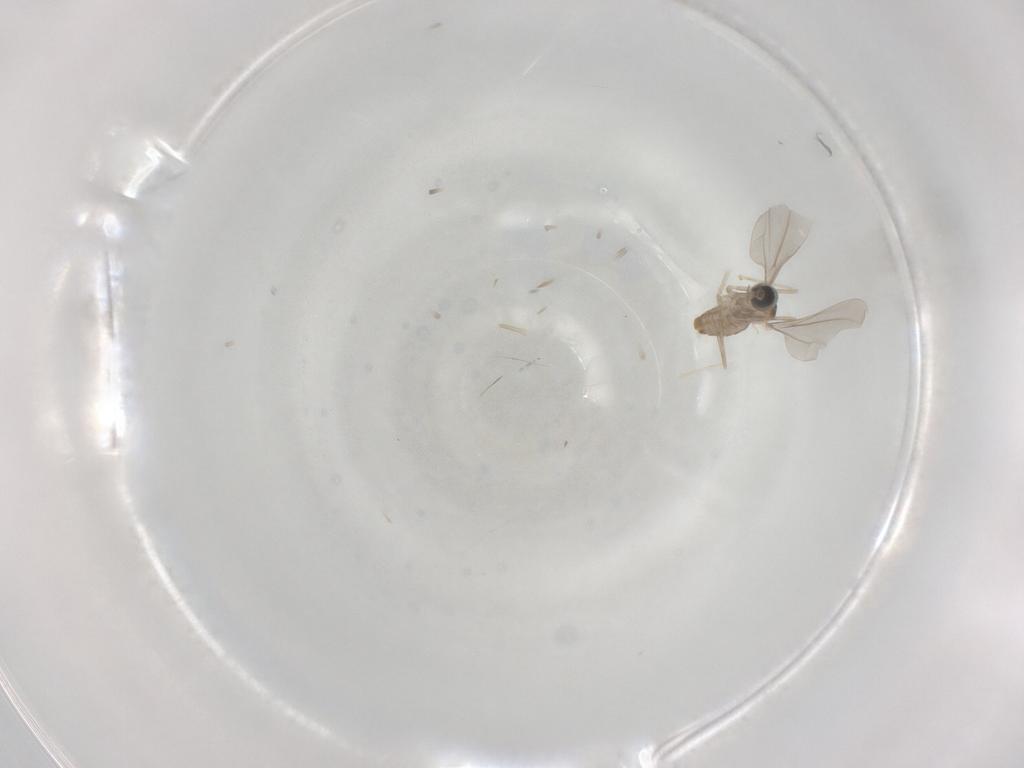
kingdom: Animalia
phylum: Arthropoda
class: Insecta
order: Diptera
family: Cecidomyiidae
